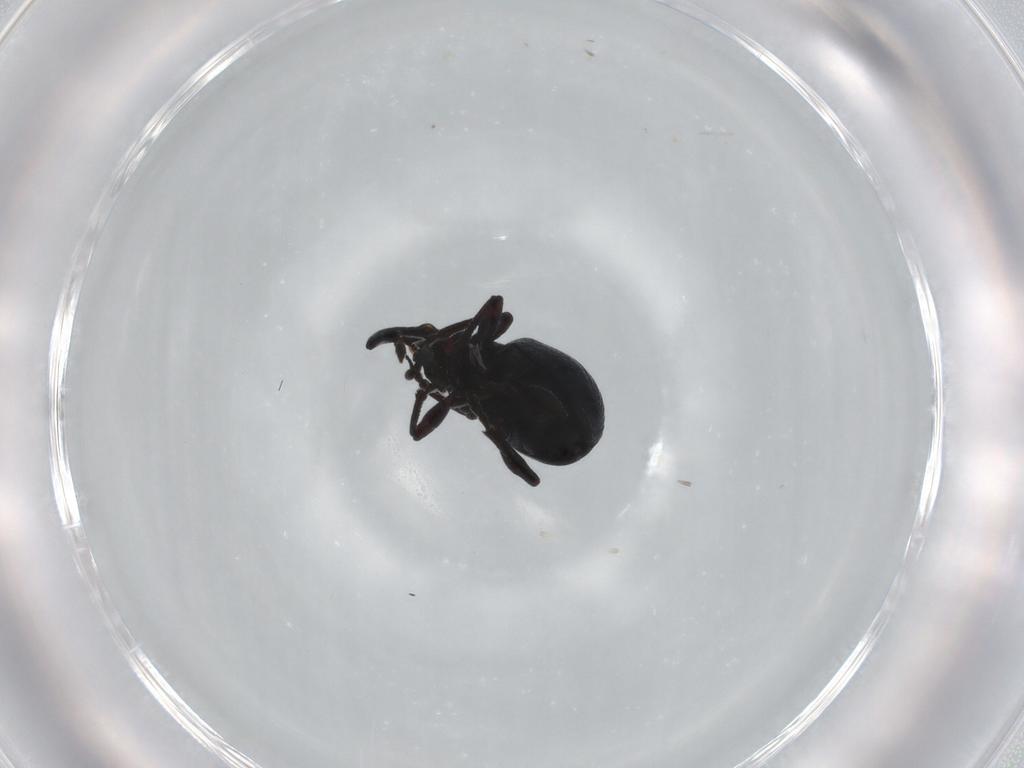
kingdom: Animalia
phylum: Arthropoda
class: Insecta
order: Coleoptera
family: Brentidae
